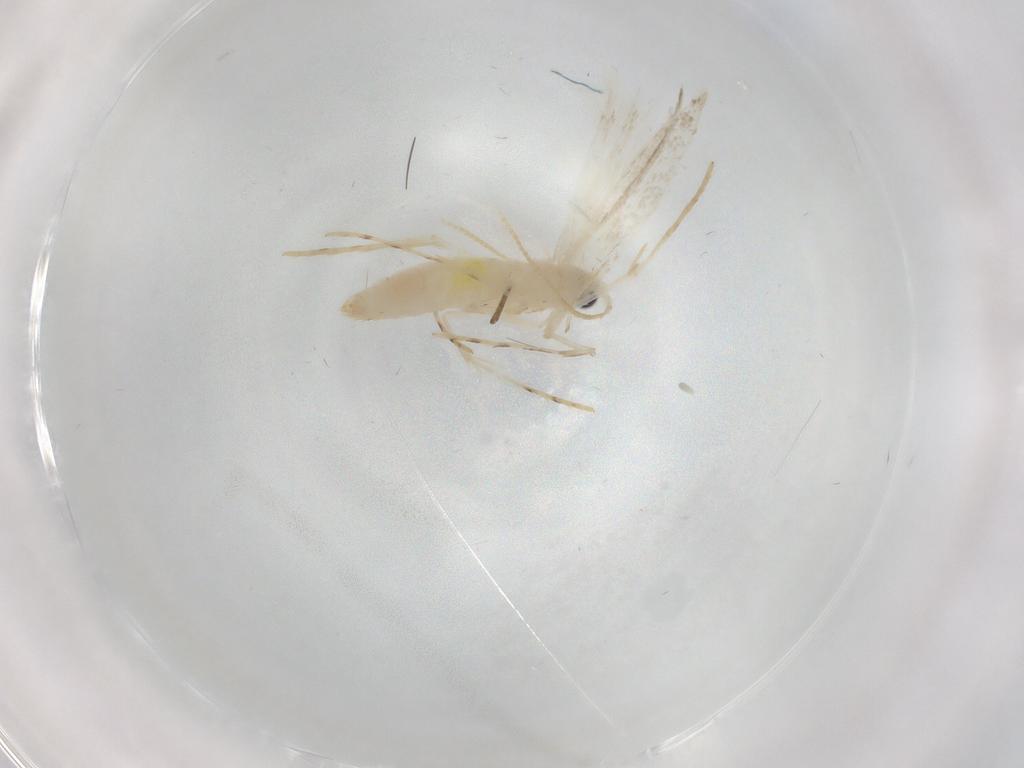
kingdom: Animalia
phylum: Arthropoda
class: Insecta
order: Lepidoptera
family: Nepticulidae
